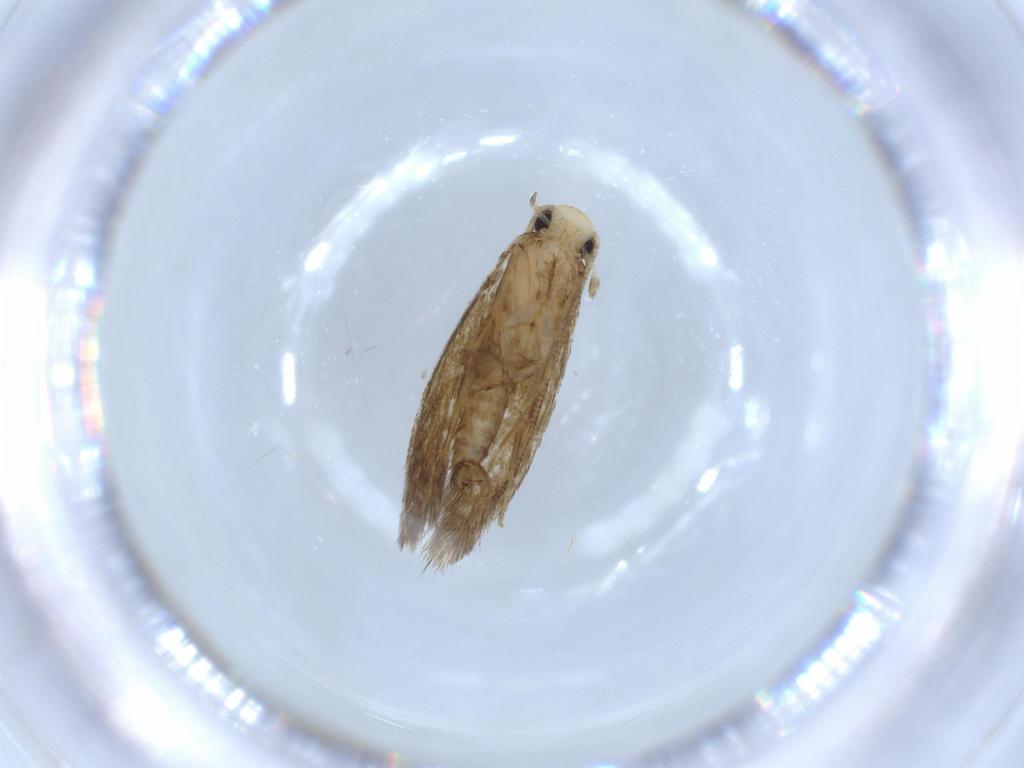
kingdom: Animalia
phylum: Arthropoda
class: Insecta
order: Lepidoptera
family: Tineidae
